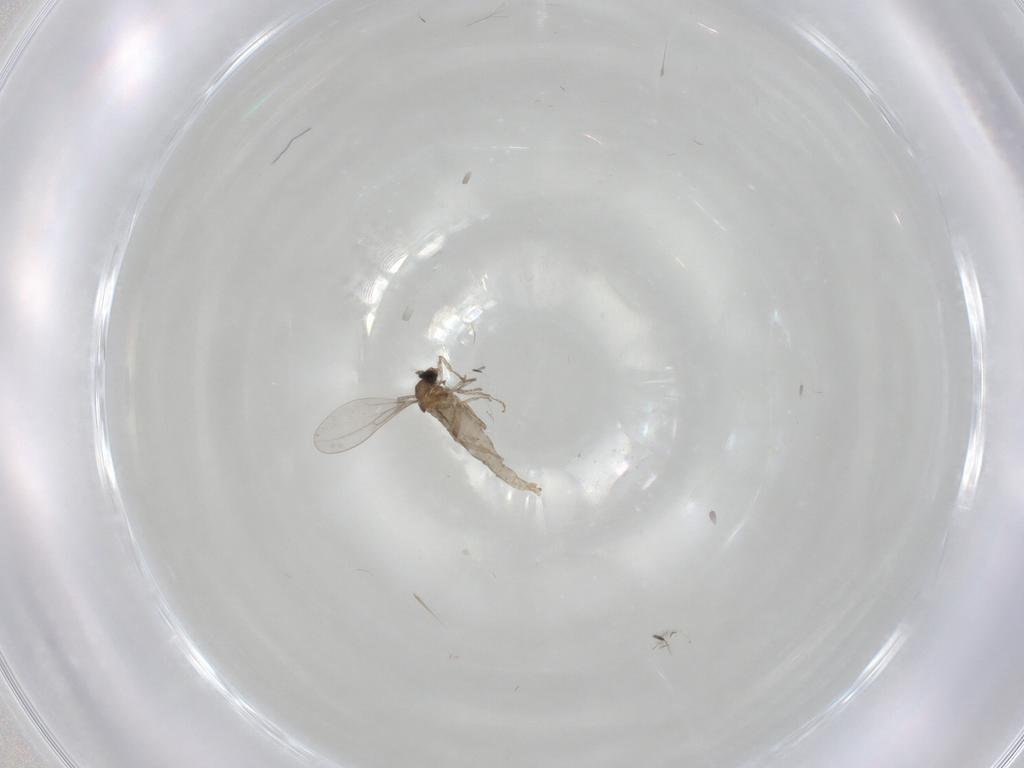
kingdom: Animalia
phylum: Arthropoda
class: Insecta
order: Diptera
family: Cecidomyiidae
